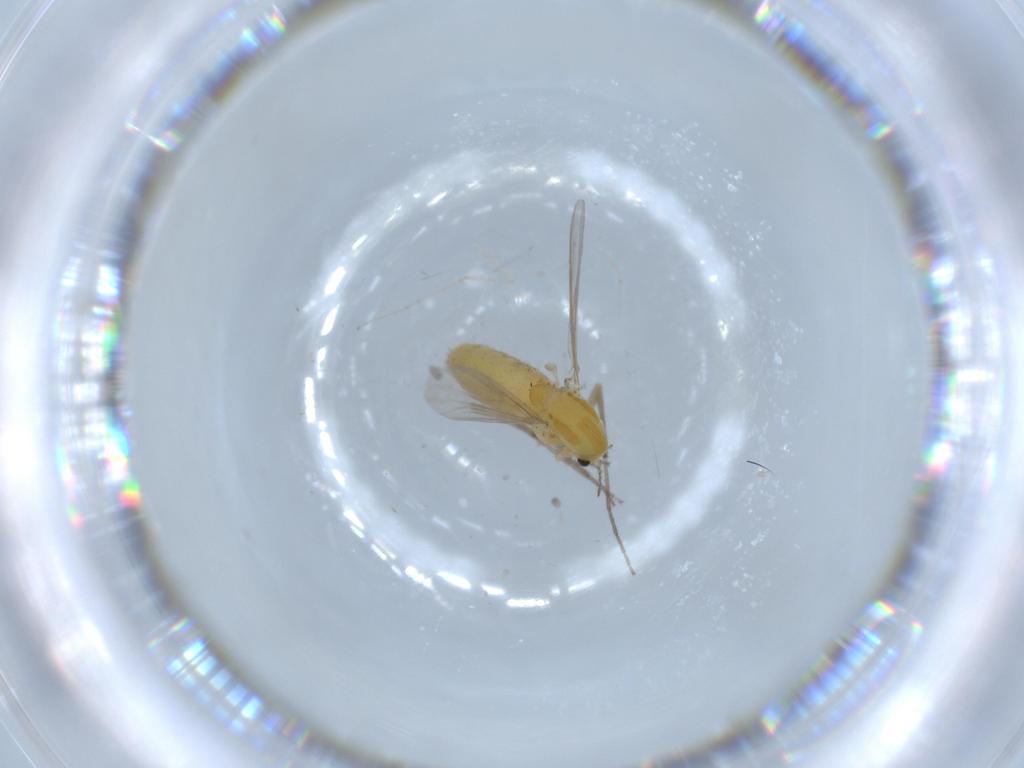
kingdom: Animalia
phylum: Arthropoda
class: Insecta
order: Diptera
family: Chironomidae
